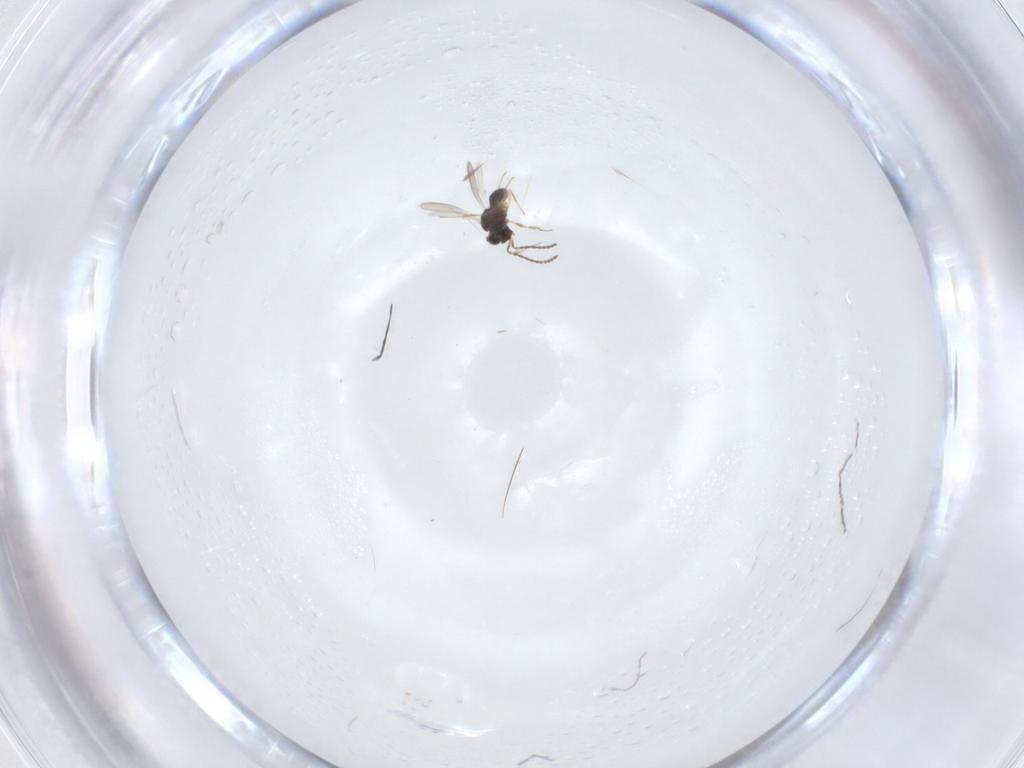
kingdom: Animalia
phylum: Arthropoda
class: Insecta
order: Hymenoptera
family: Scelionidae
